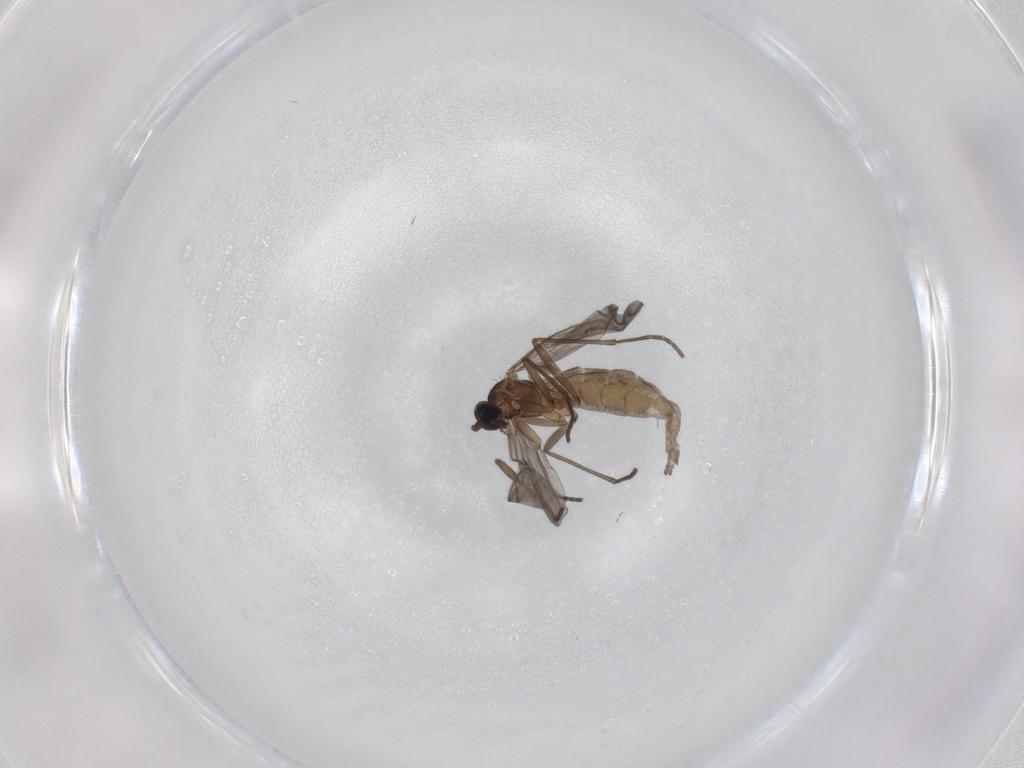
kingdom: Animalia
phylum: Arthropoda
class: Insecta
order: Diptera
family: Sciaridae
